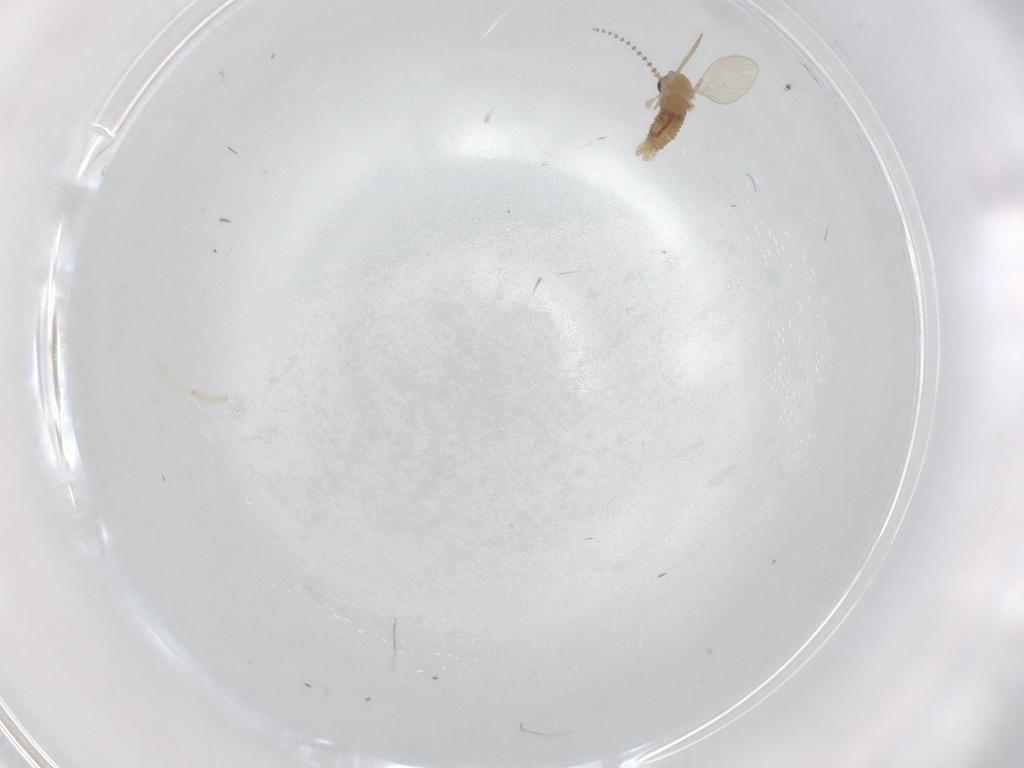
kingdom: Animalia
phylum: Arthropoda
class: Insecta
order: Diptera
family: Psychodidae
